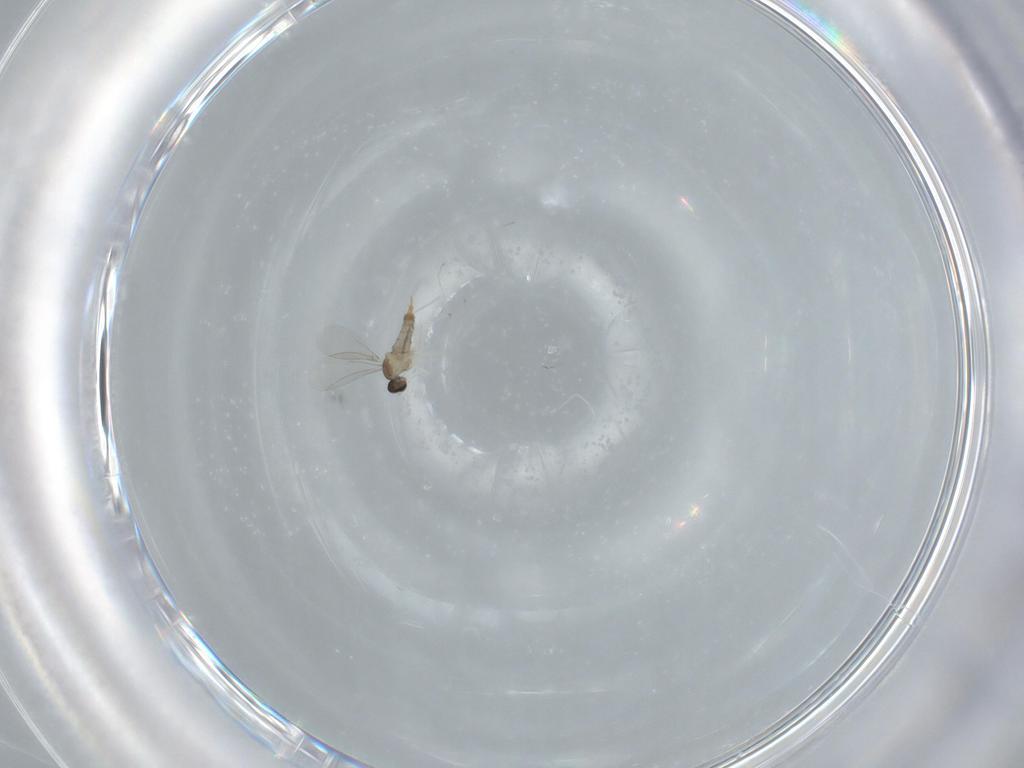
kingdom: Animalia
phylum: Arthropoda
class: Insecta
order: Diptera
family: Cecidomyiidae
